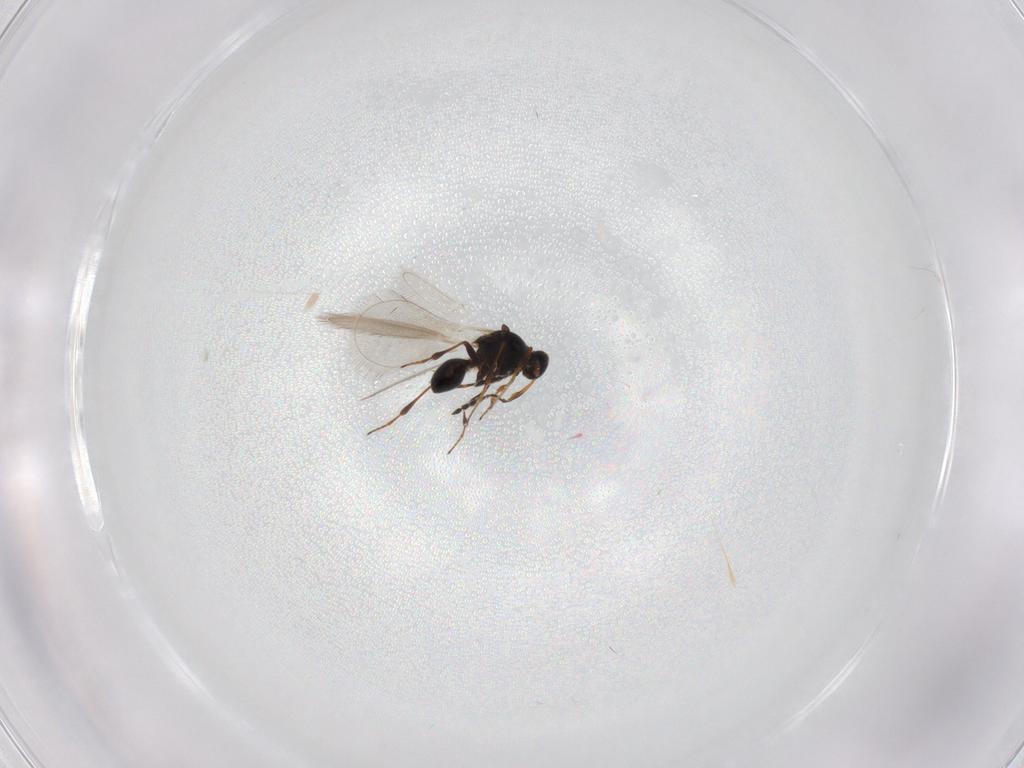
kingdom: Animalia
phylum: Arthropoda
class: Insecta
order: Hymenoptera
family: Platygastridae
